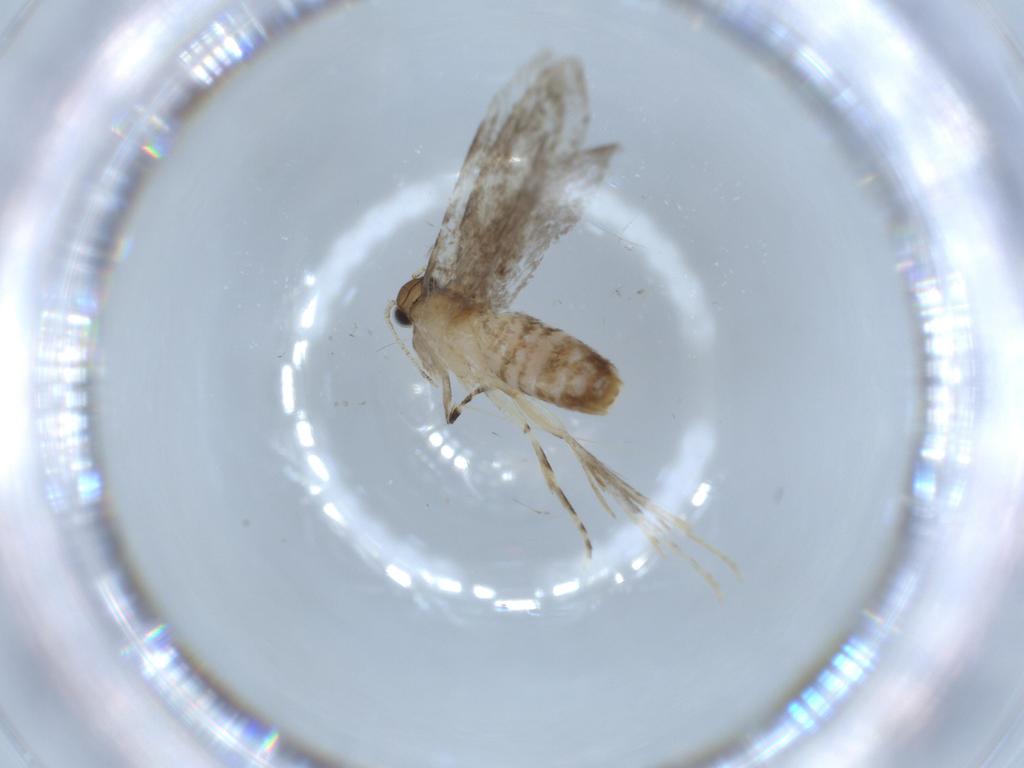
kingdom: Animalia
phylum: Arthropoda
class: Insecta
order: Lepidoptera
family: Tineidae
